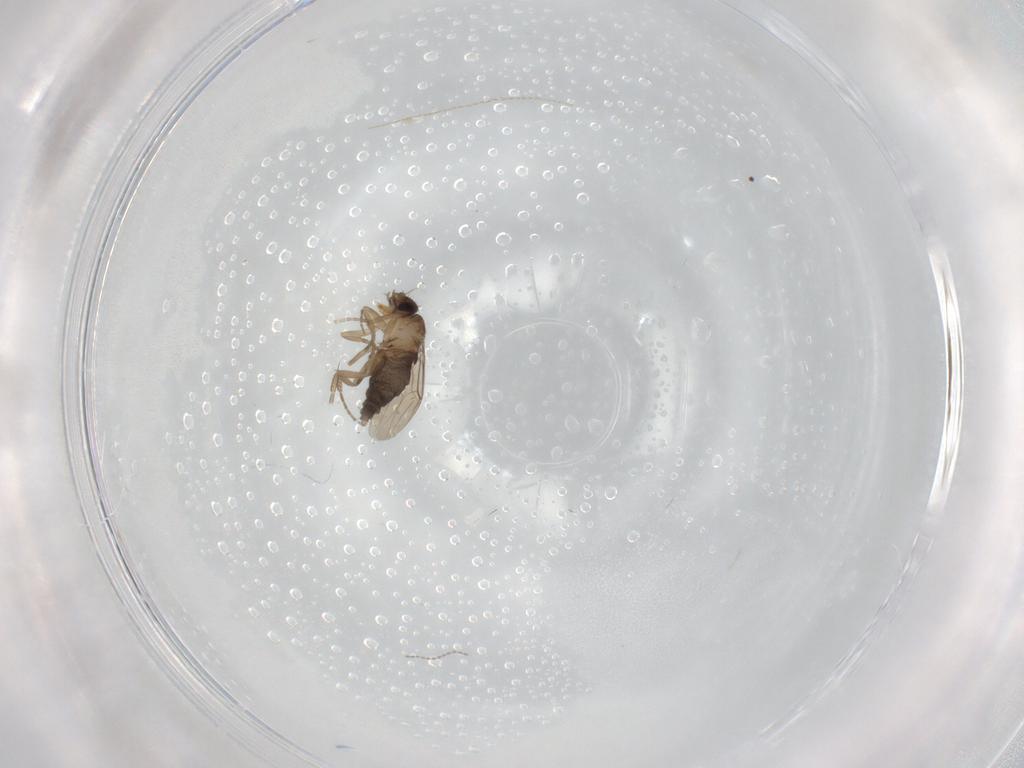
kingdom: Animalia
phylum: Arthropoda
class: Insecta
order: Diptera
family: Phoridae
